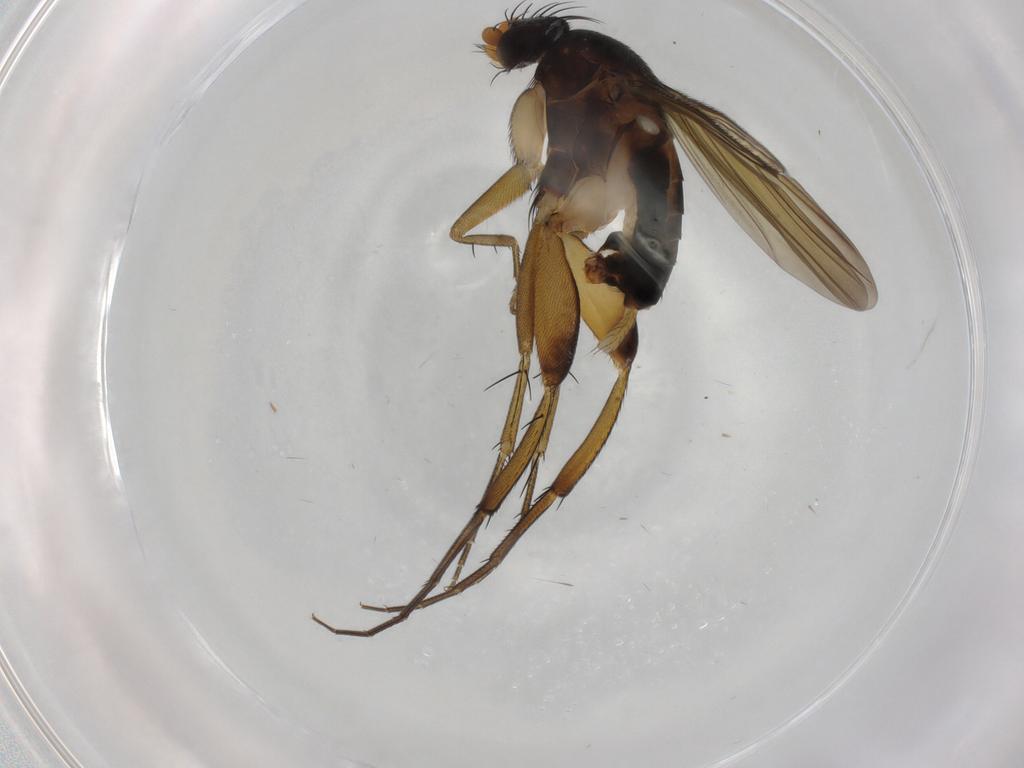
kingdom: Animalia
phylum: Arthropoda
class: Insecta
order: Diptera
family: Phoridae
